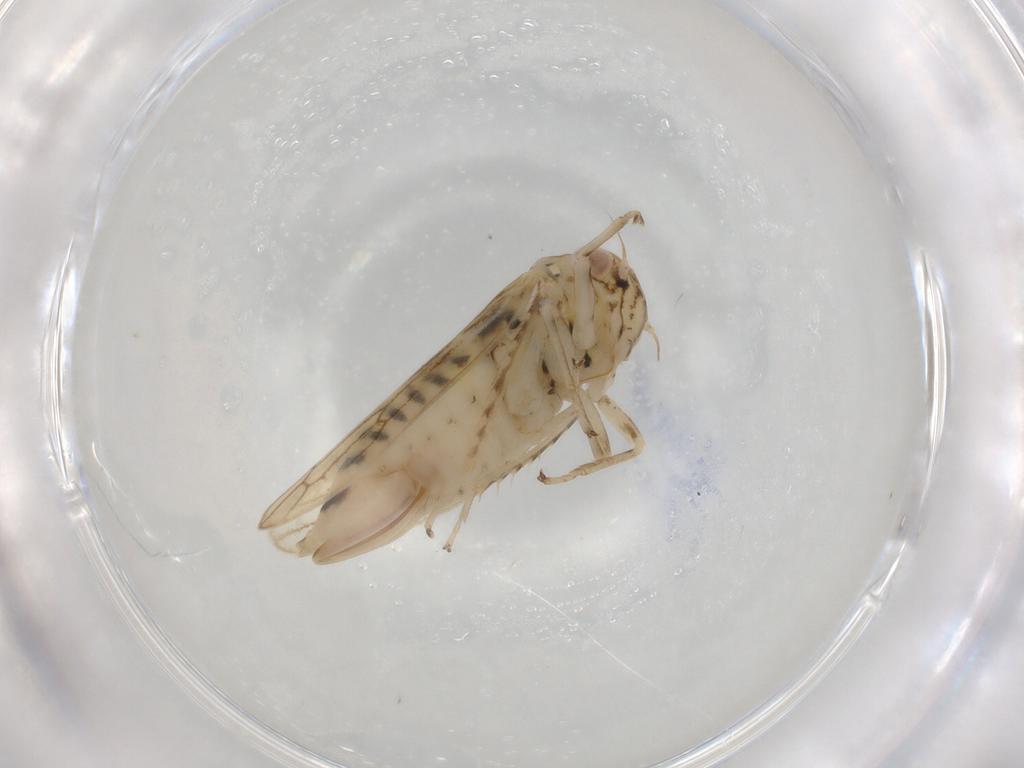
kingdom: Animalia
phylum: Arthropoda
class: Insecta
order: Hemiptera
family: Cicadellidae
